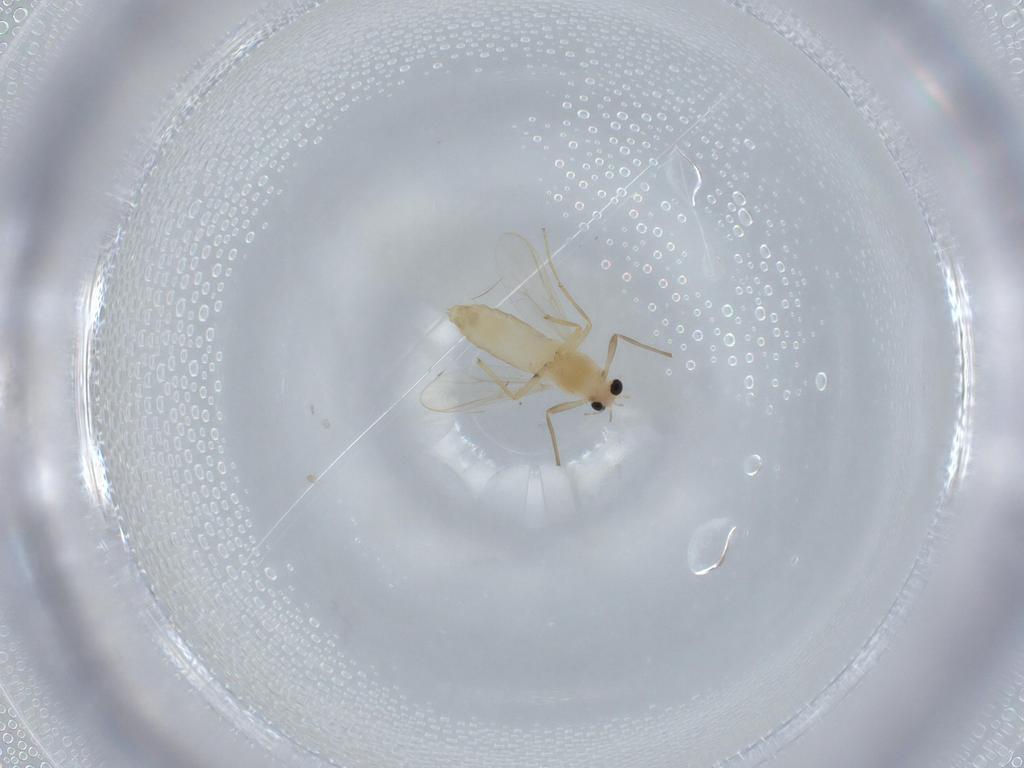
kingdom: Animalia
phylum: Arthropoda
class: Insecta
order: Diptera
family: Chironomidae
